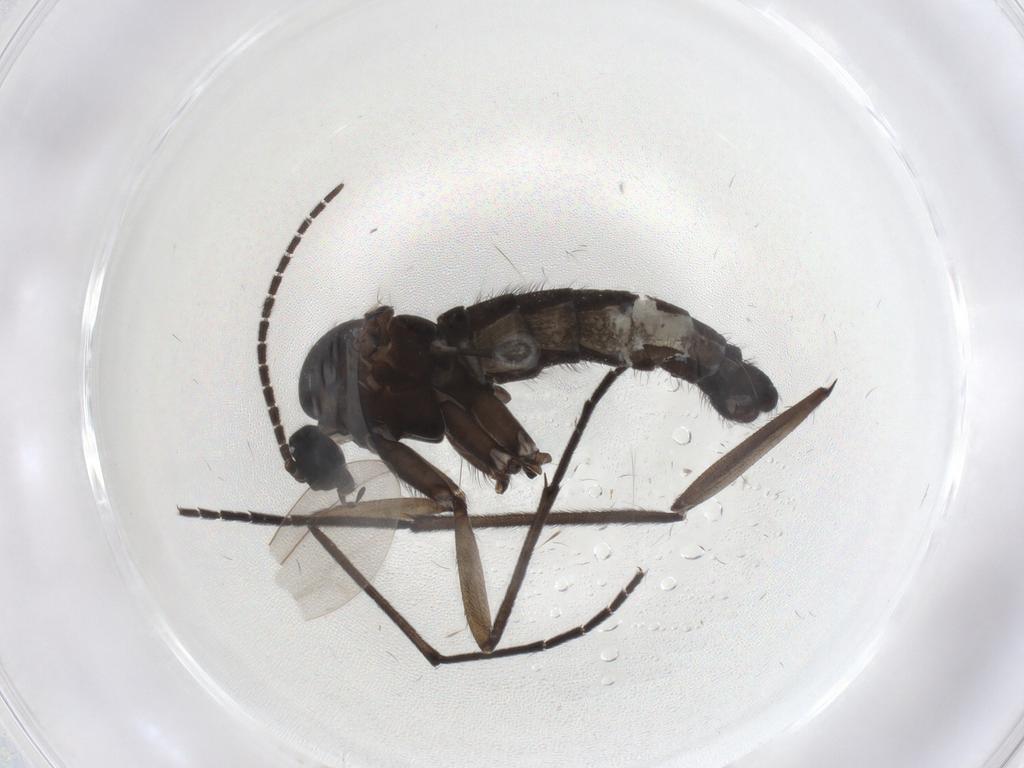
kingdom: Animalia
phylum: Arthropoda
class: Insecta
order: Diptera
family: Sciaridae
